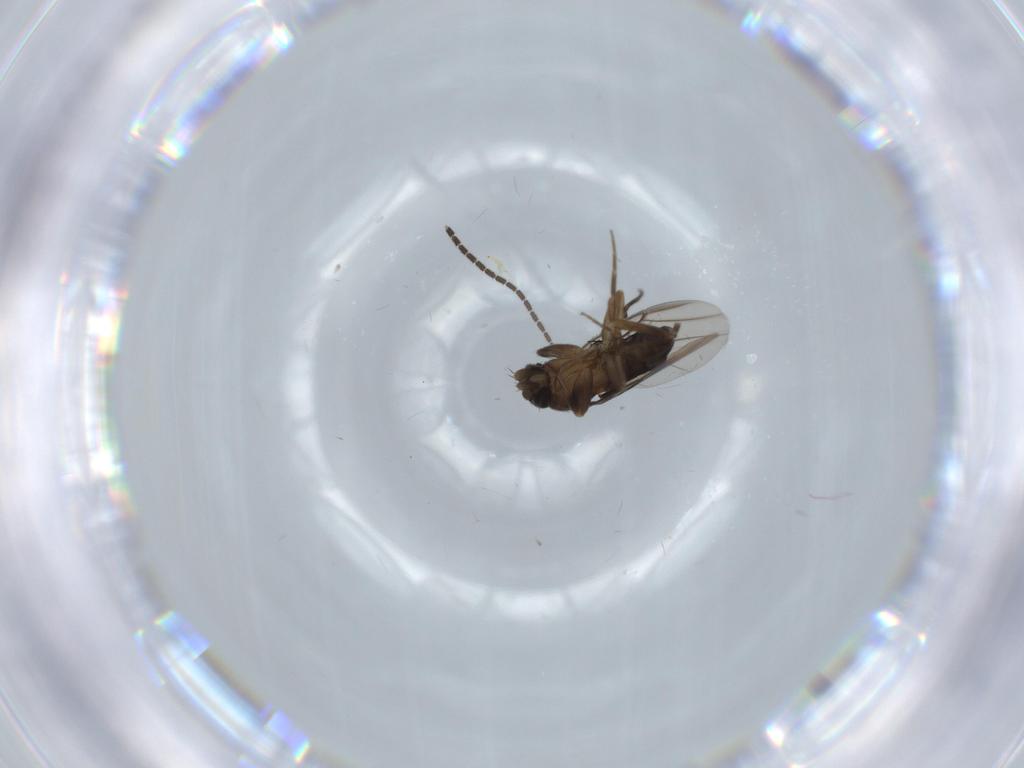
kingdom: Animalia
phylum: Arthropoda
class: Insecta
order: Diptera
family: Phoridae
